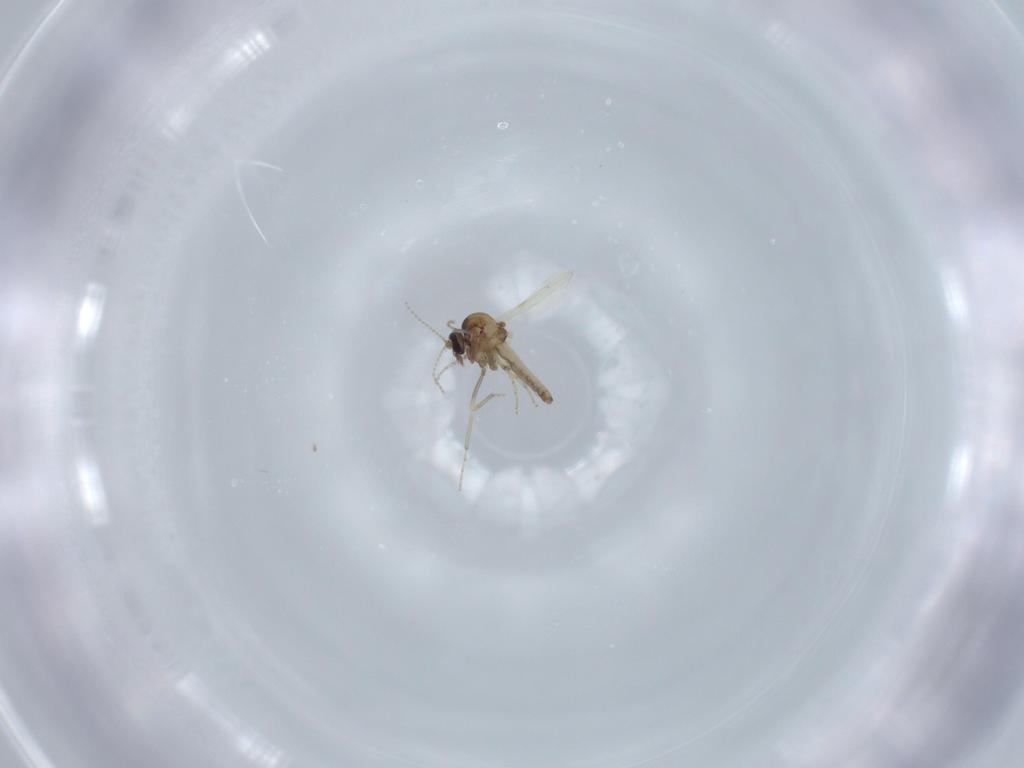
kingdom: Animalia
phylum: Arthropoda
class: Insecta
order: Diptera
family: Ceratopogonidae
